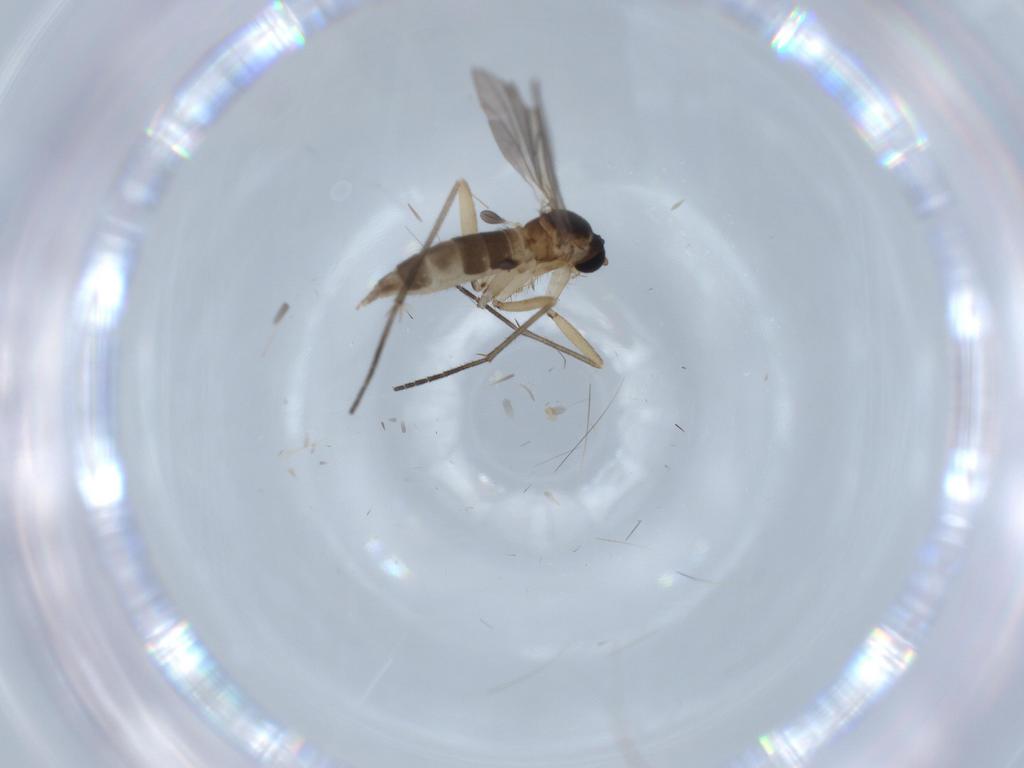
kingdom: Animalia
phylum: Arthropoda
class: Insecta
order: Diptera
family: Sciaridae
